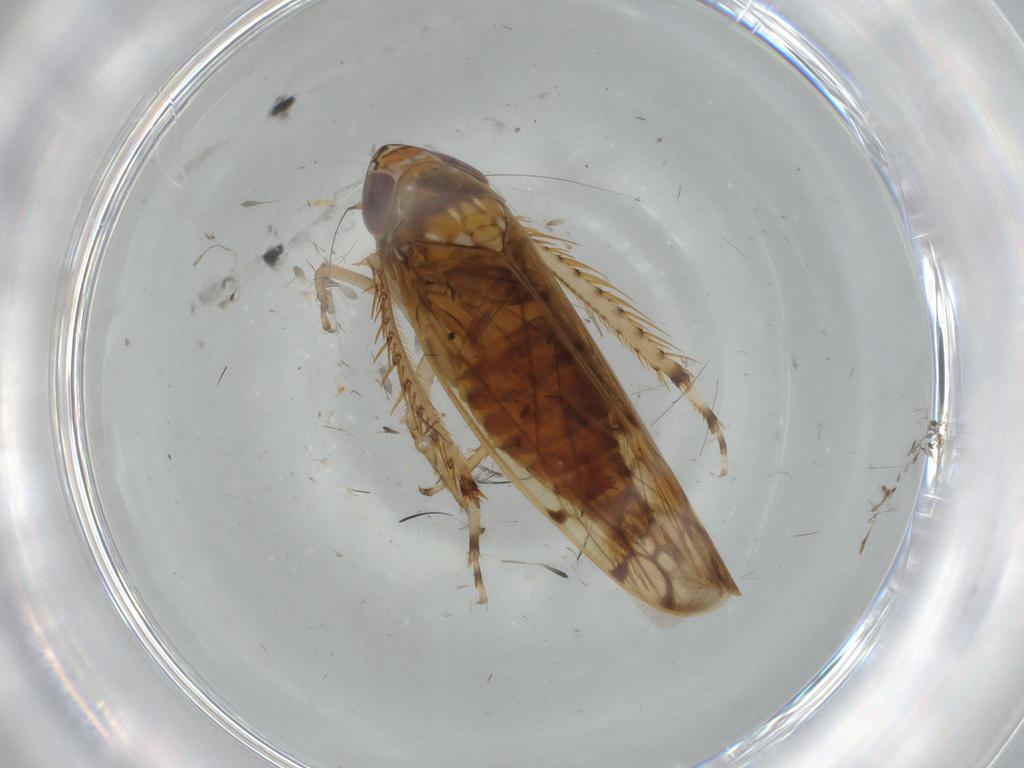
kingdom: Animalia
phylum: Arthropoda
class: Insecta
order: Hemiptera
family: Cicadellidae
